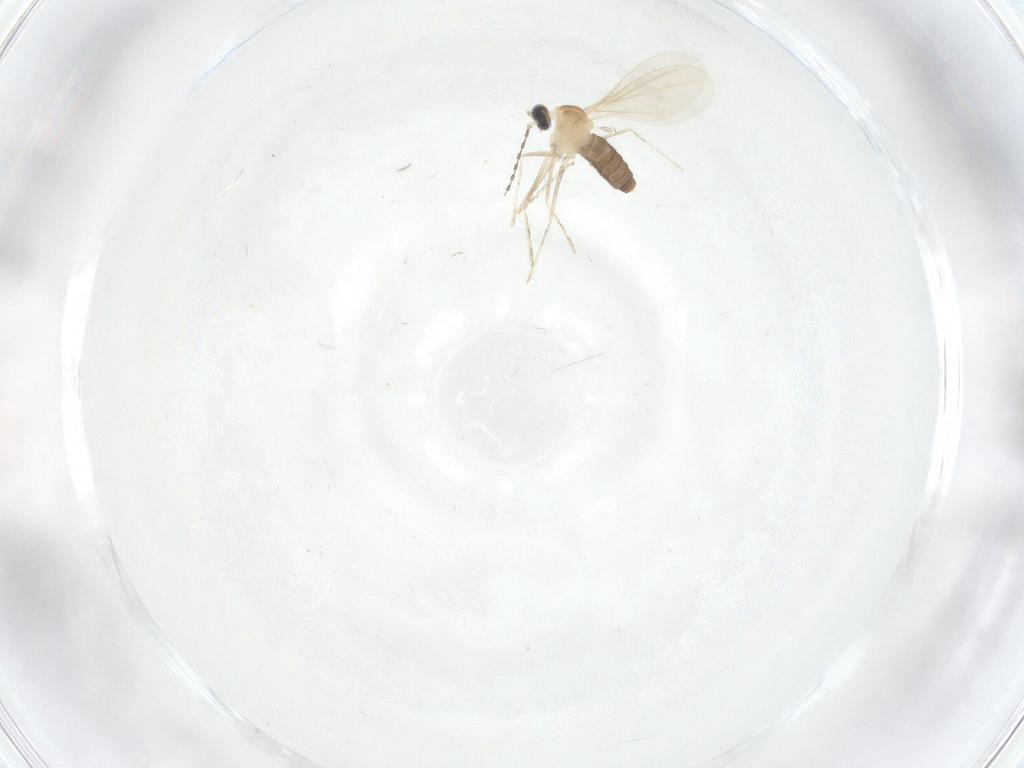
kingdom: Animalia
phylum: Arthropoda
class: Insecta
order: Diptera
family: Cecidomyiidae
